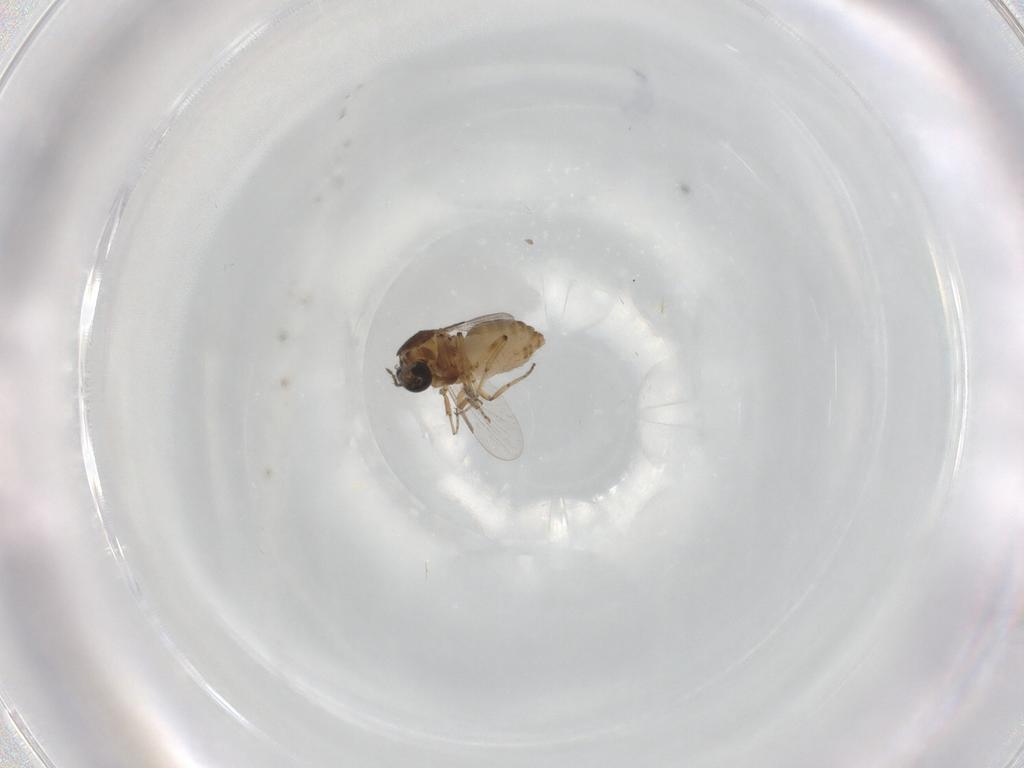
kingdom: Animalia
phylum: Arthropoda
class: Insecta
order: Diptera
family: Ceratopogonidae
